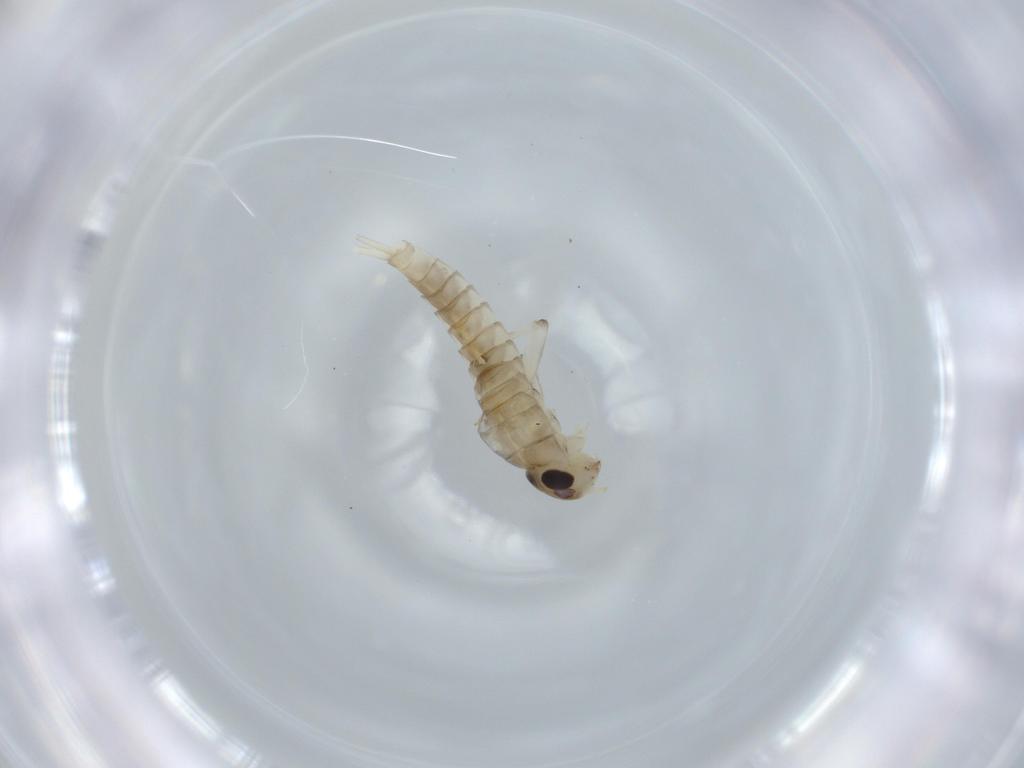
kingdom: Animalia
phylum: Arthropoda
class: Insecta
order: Ephemeroptera
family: Baetidae
